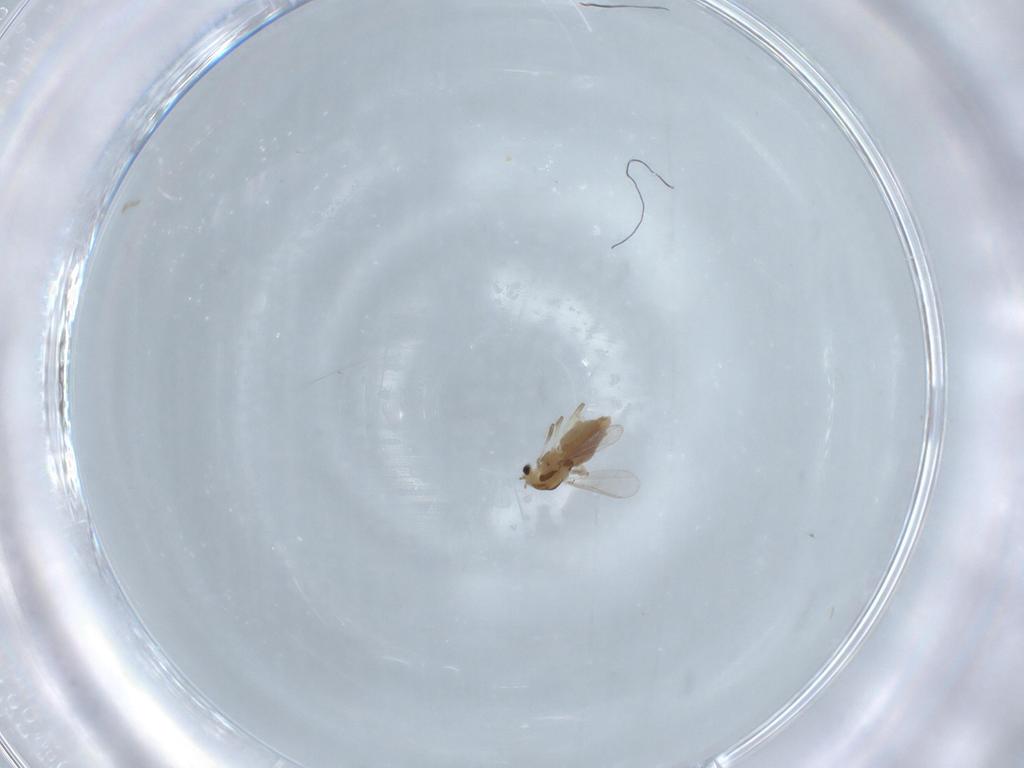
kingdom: Animalia
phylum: Arthropoda
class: Insecta
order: Diptera
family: Chironomidae
